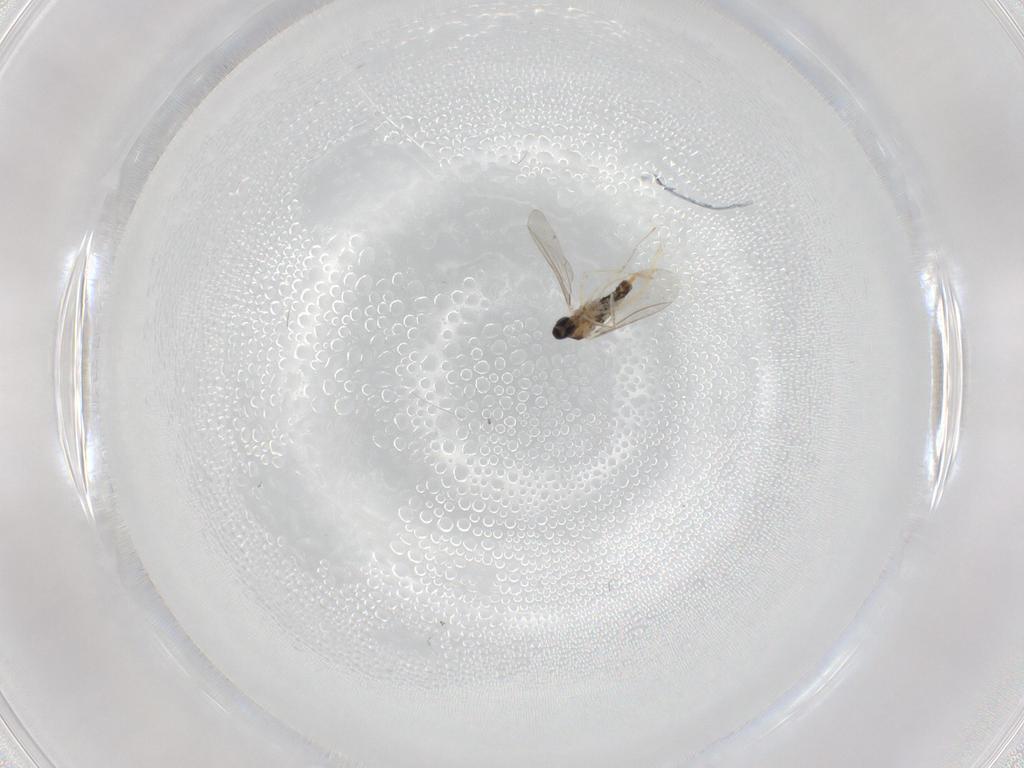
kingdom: Animalia
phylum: Arthropoda
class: Insecta
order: Diptera
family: Cecidomyiidae
